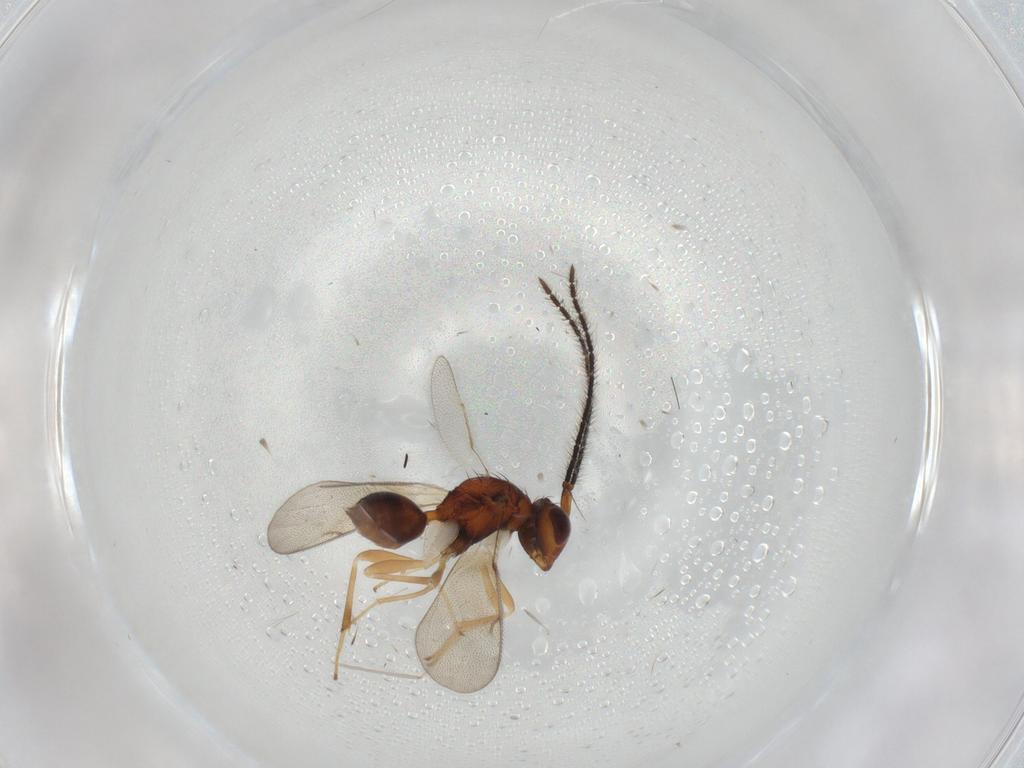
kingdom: Animalia
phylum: Arthropoda
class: Insecta
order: Hymenoptera
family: Diparidae
